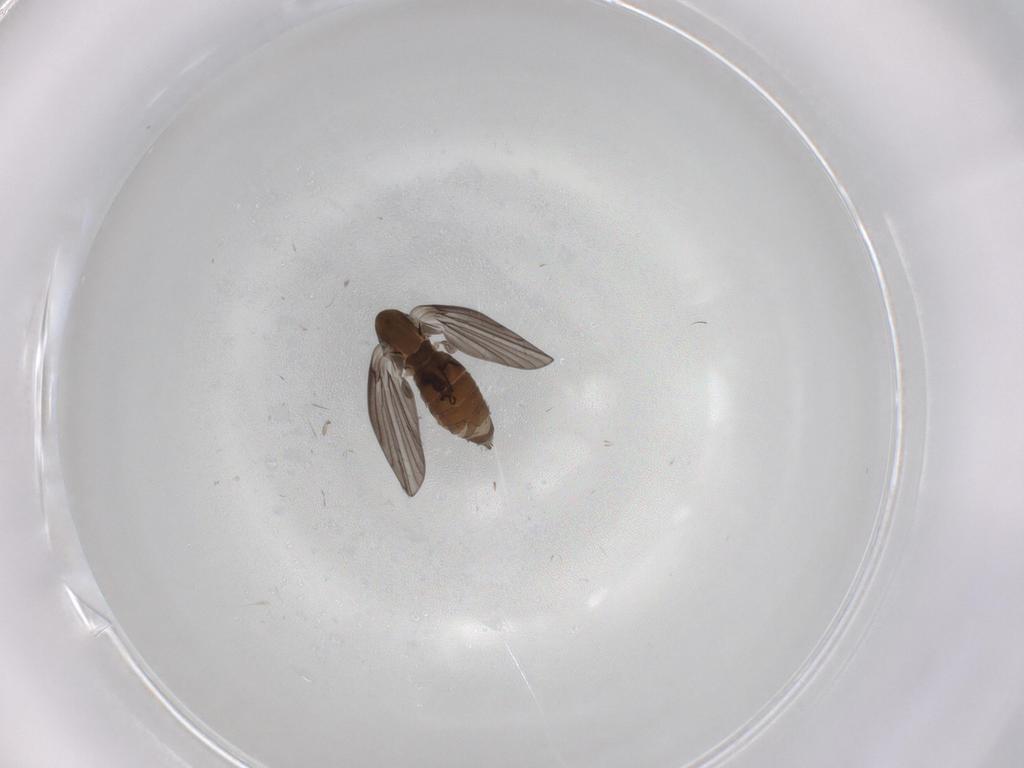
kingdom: Animalia
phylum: Arthropoda
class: Insecta
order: Diptera
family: Psychodidae
